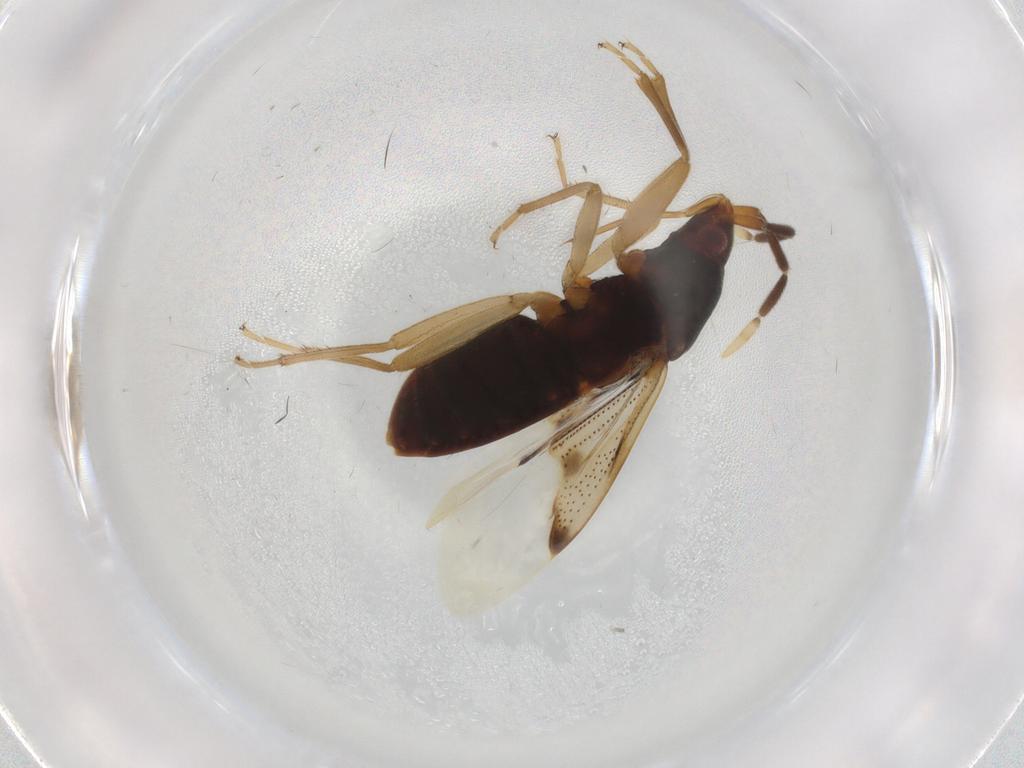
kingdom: Animalia
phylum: Arthropoda
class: Insecta
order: Hemiptera
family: Rhyparochromidae
